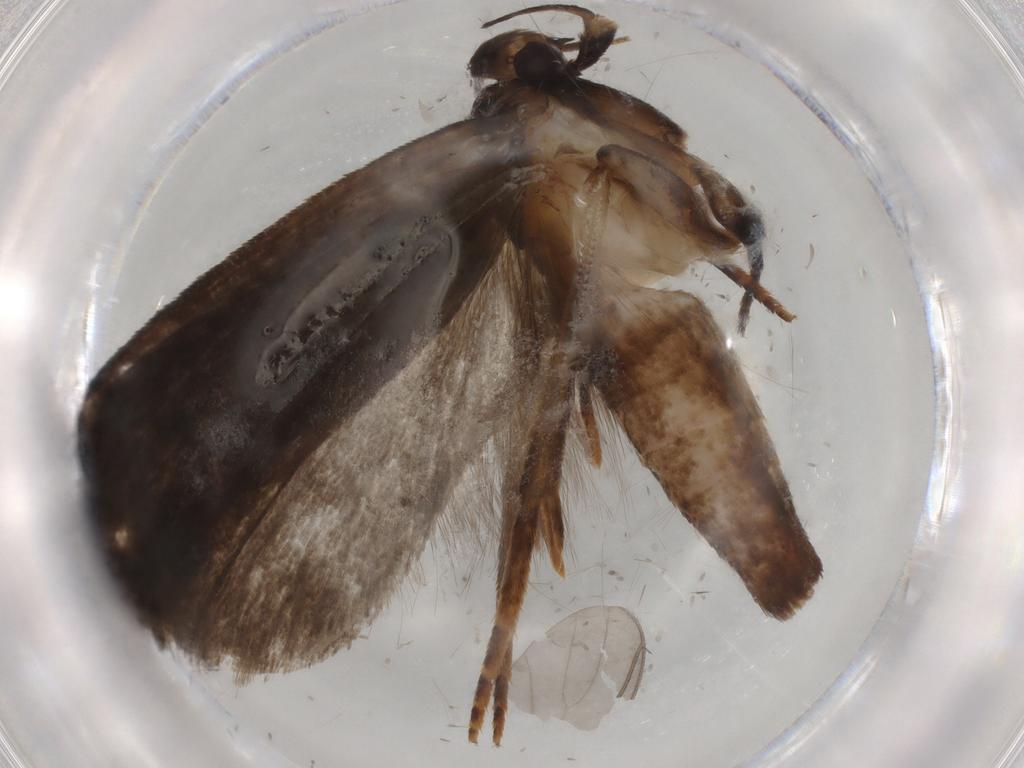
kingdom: Animalia
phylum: Arthropoda
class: Insecta
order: Lepidoptera
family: Gelechiidae
